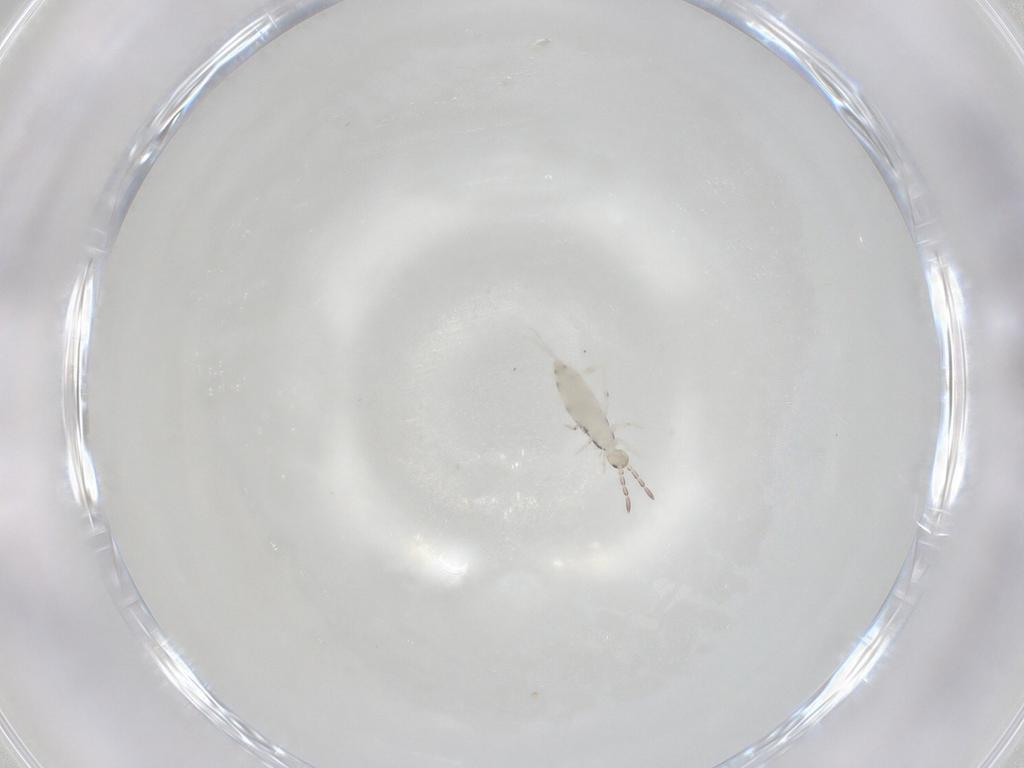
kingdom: Animalia
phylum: Arthropoda
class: Collembola
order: Entomobryomorpha
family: Entomobryidae
